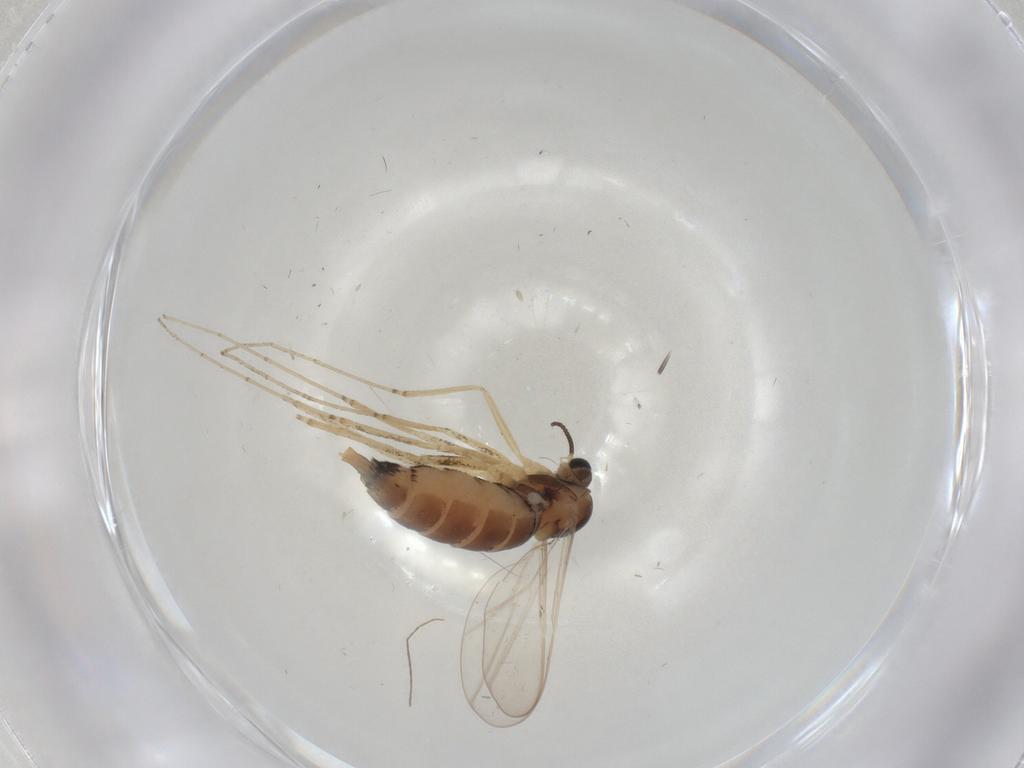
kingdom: Animalia
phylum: Arthropoda
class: Insecta
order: Diptera
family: Cecidomyiidae
